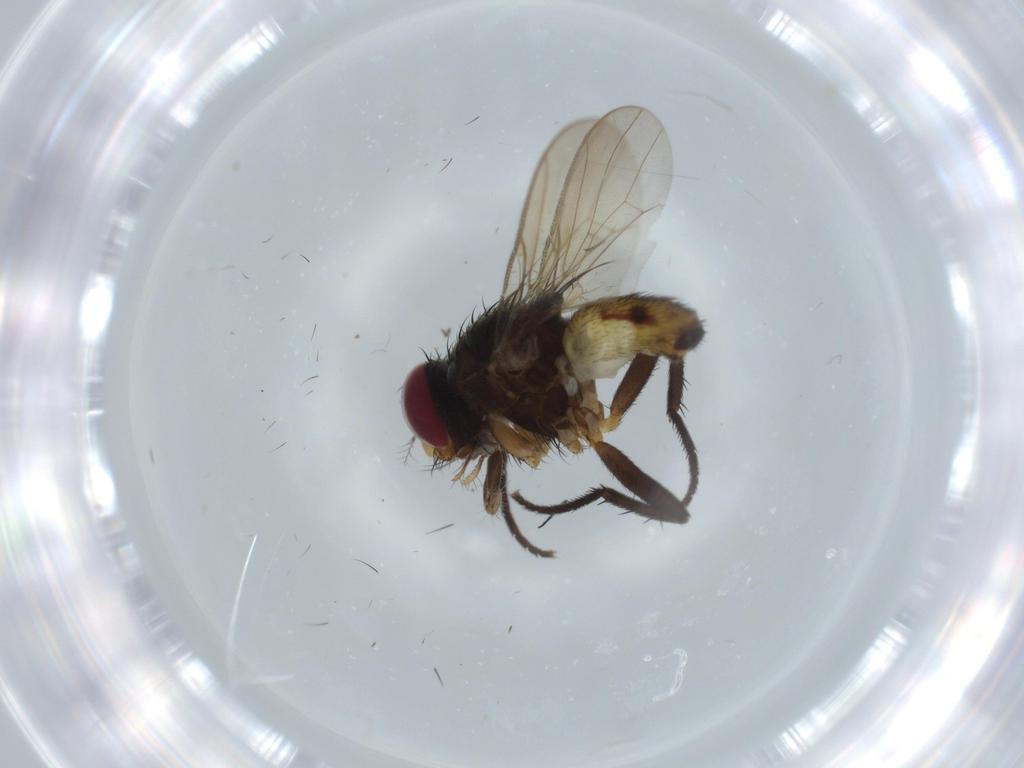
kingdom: Animalia
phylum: Arthropoda
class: Insecta
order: Diptera
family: Anthomyiidae
